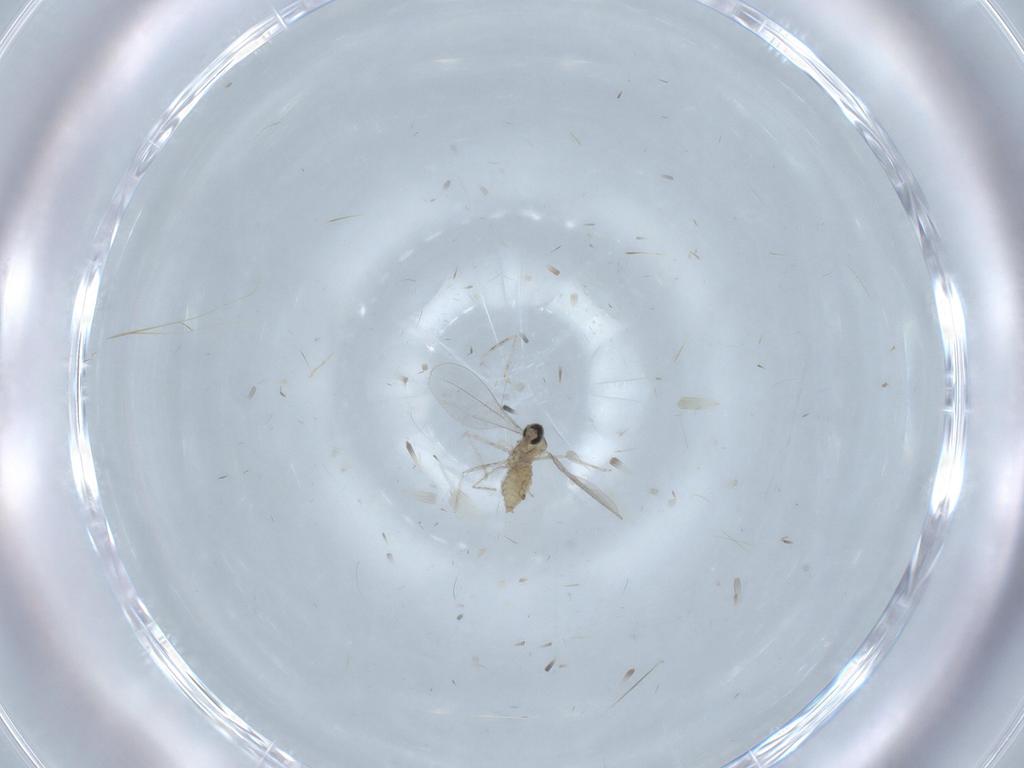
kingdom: Animalia
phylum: Arthropoda
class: Insecta
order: Diptera
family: Cecidomyiidae
